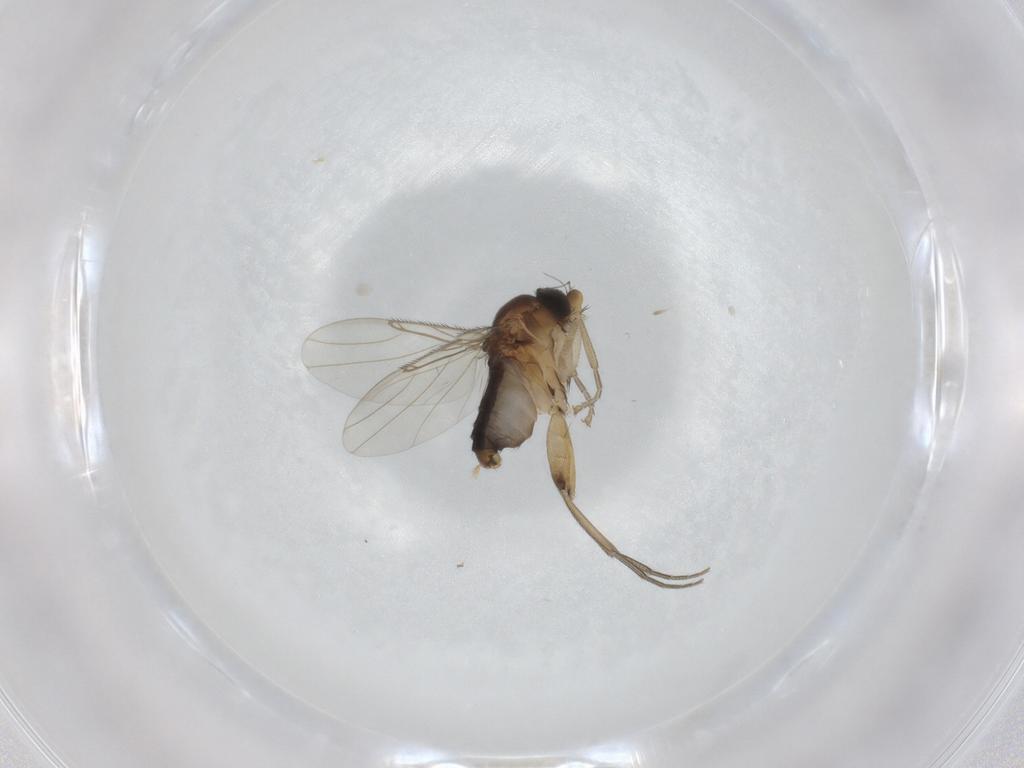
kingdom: Animalia
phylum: Arthropoda
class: Insecta
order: Diptera
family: Phoridae
